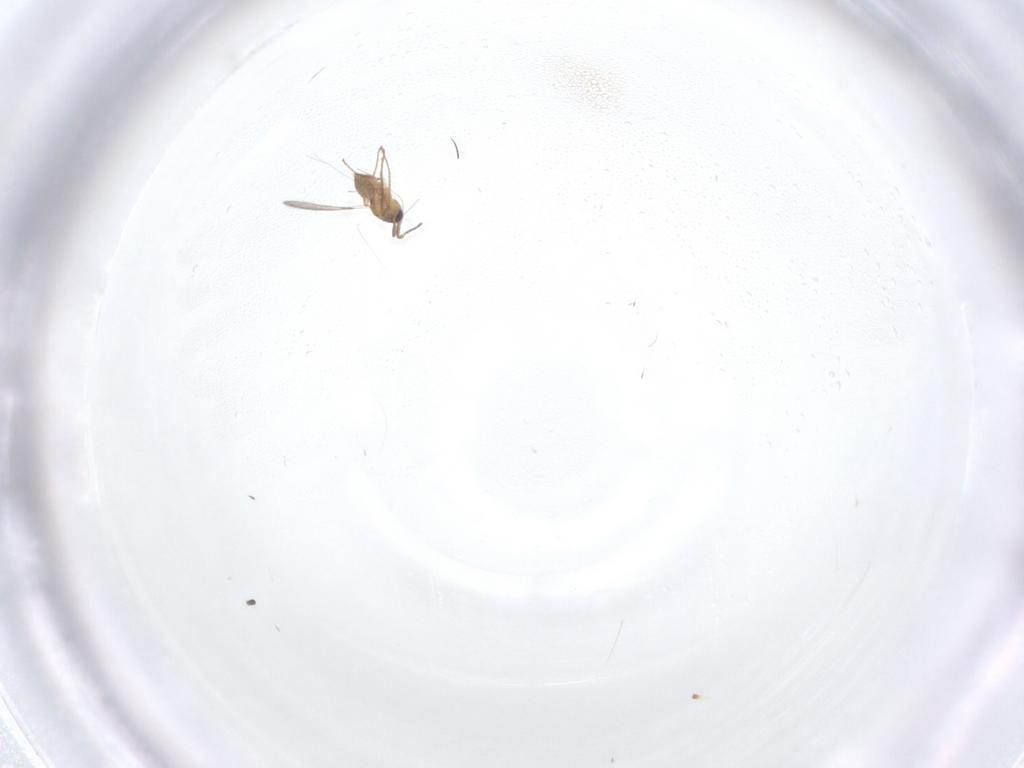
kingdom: Animalia
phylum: Arthropoda
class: Insecta
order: Hymenoptera
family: Mymaridae
